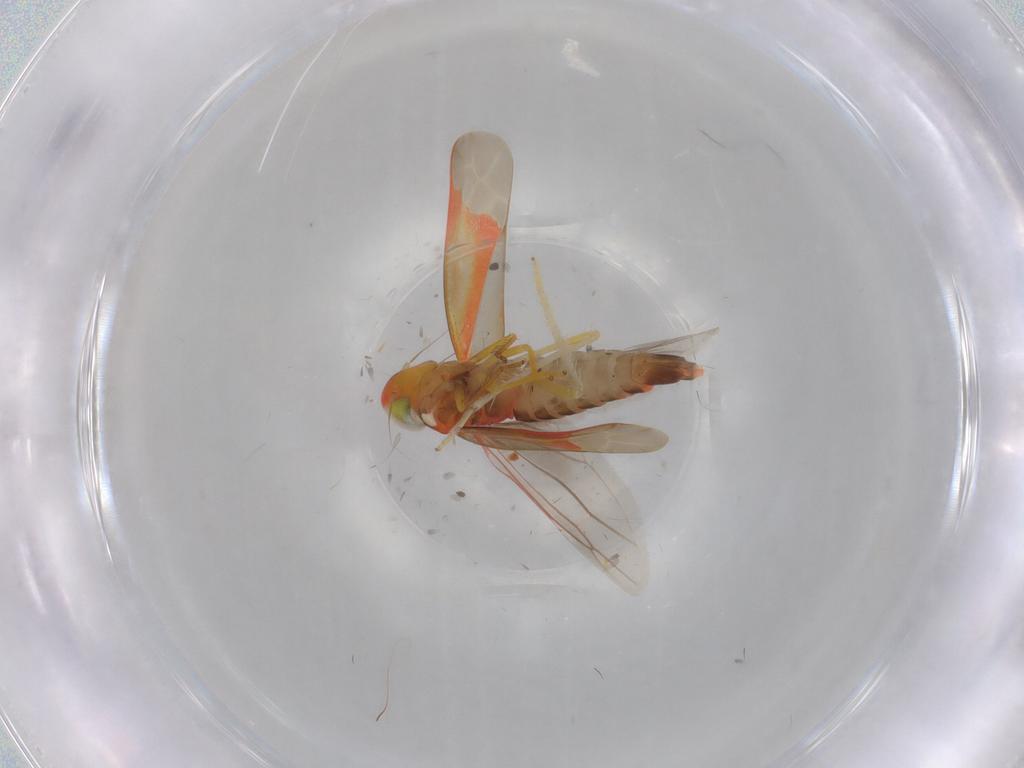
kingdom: Animalia
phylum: Arthropoda
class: Insecta
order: Hemiptera
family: Cicadellidae
